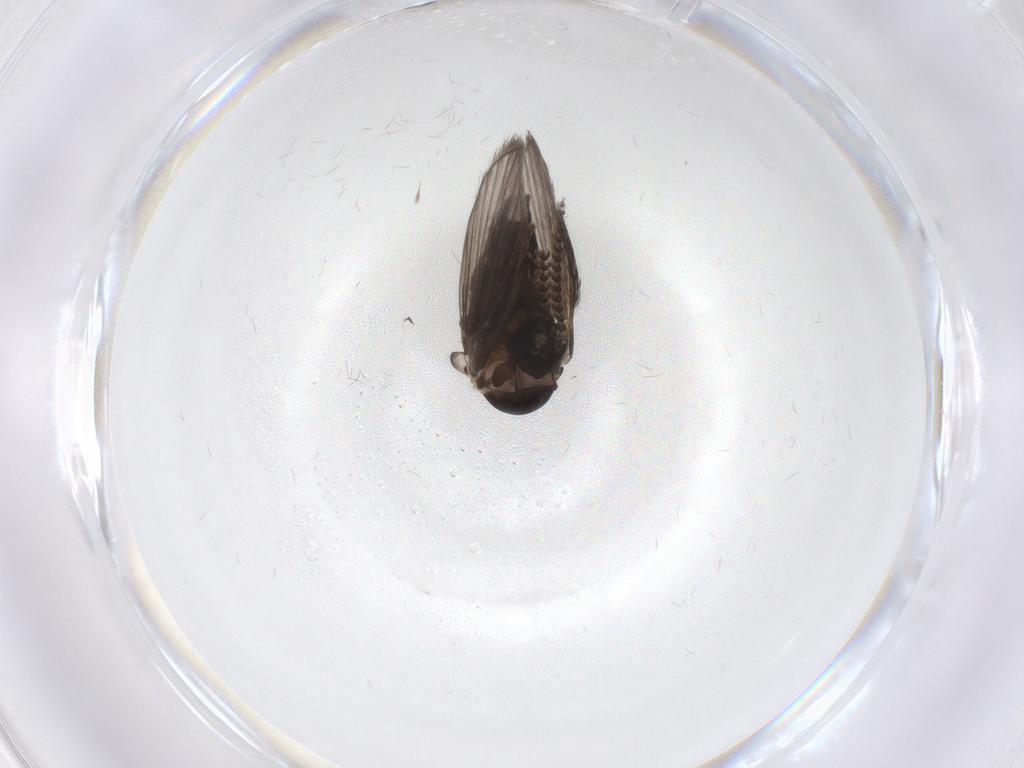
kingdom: Animalia
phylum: Arthropoda
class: Insecta
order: Diptera
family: Psychodidae
